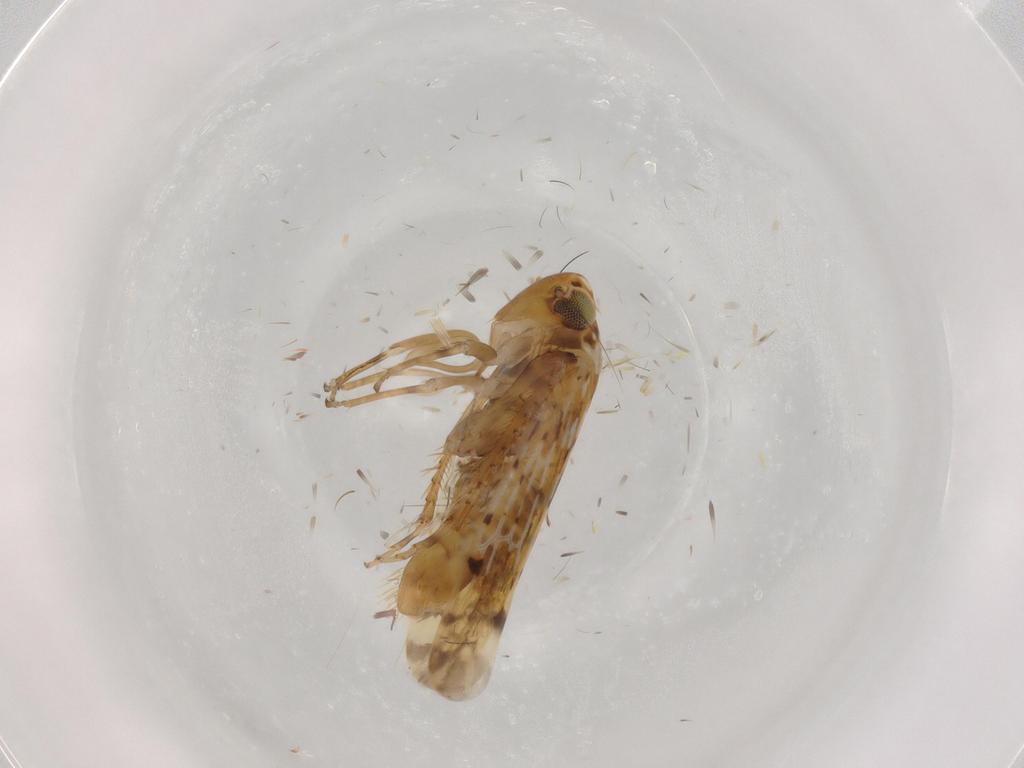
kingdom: Animalia
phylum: Arthropoda
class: Insecta
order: Hemiptera
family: Cicadellidae
